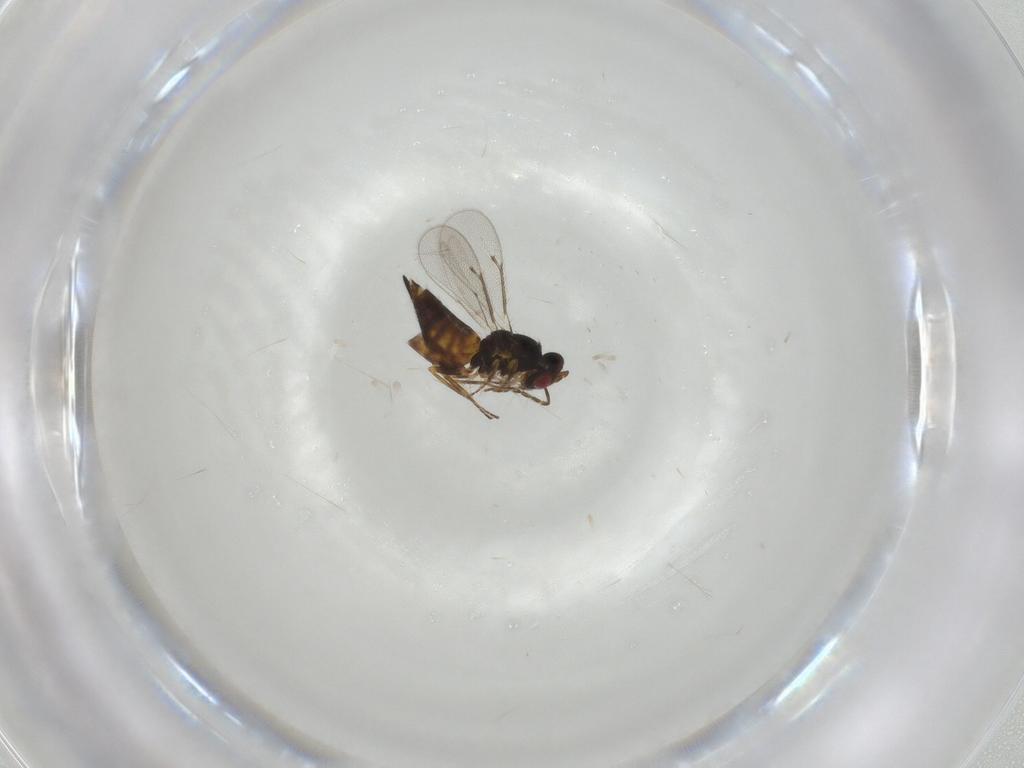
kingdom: Animalia
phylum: Arthropoda
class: Insecta
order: Hymenoptera
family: Eulophidae
